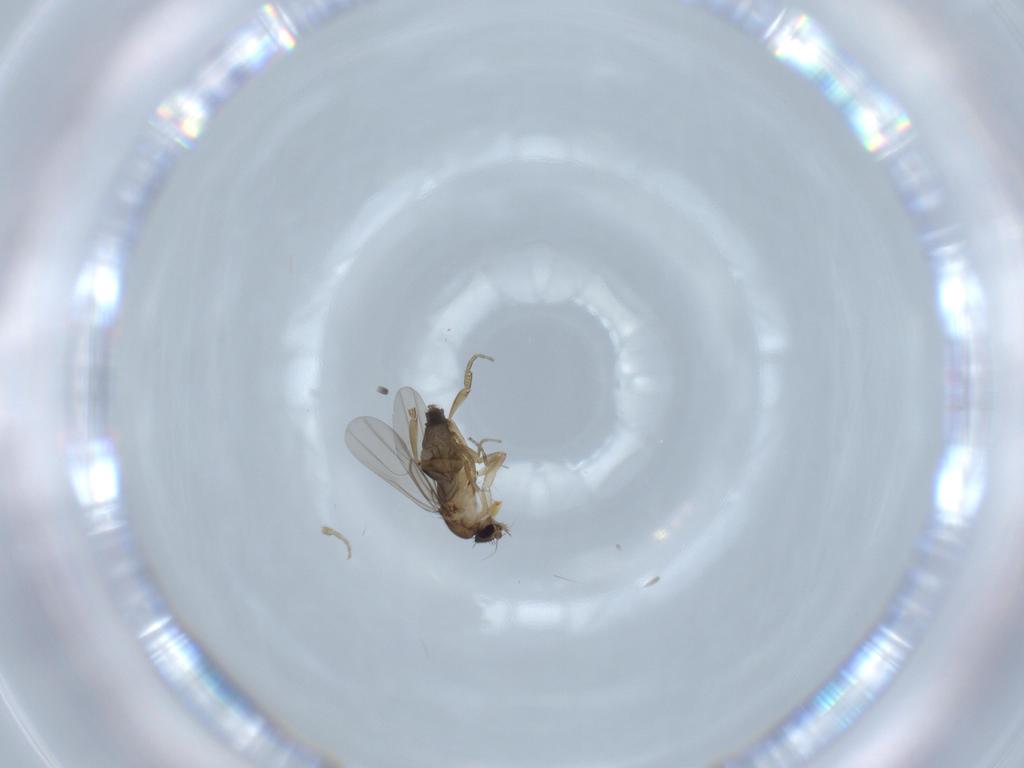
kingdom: Animalia
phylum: Arthropoda
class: Insecta
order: Diptera
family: Phoridae
